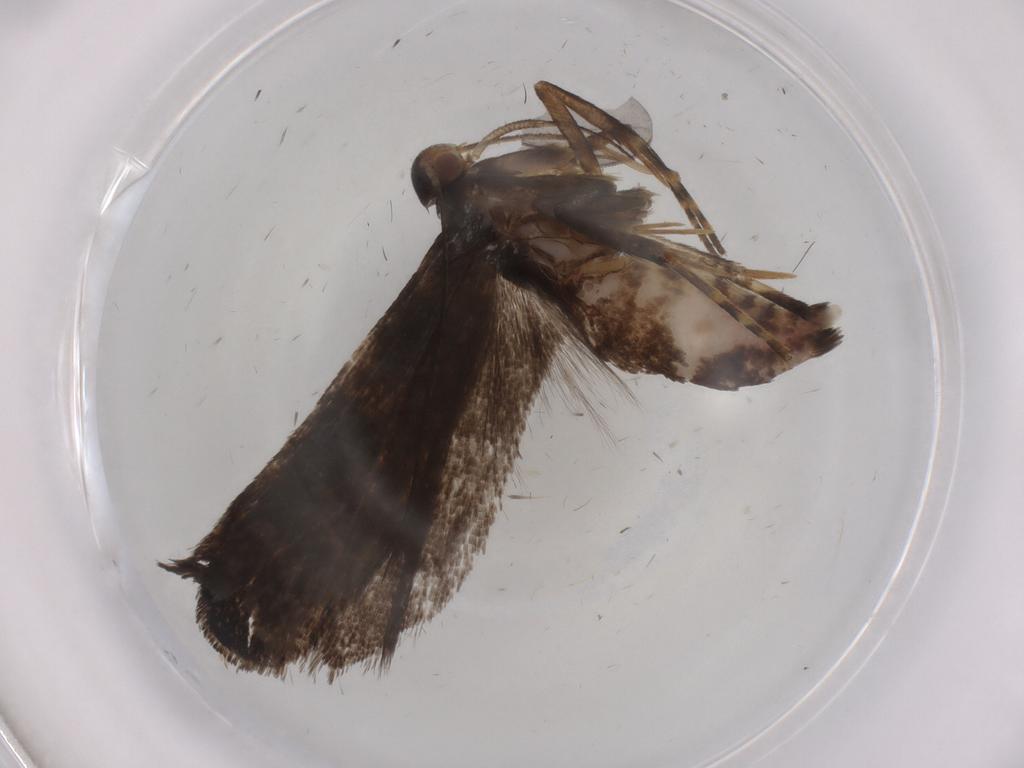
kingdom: Animalia
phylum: Arthropoda
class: Insecta
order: Lepidoptera
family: Gelechiidae
